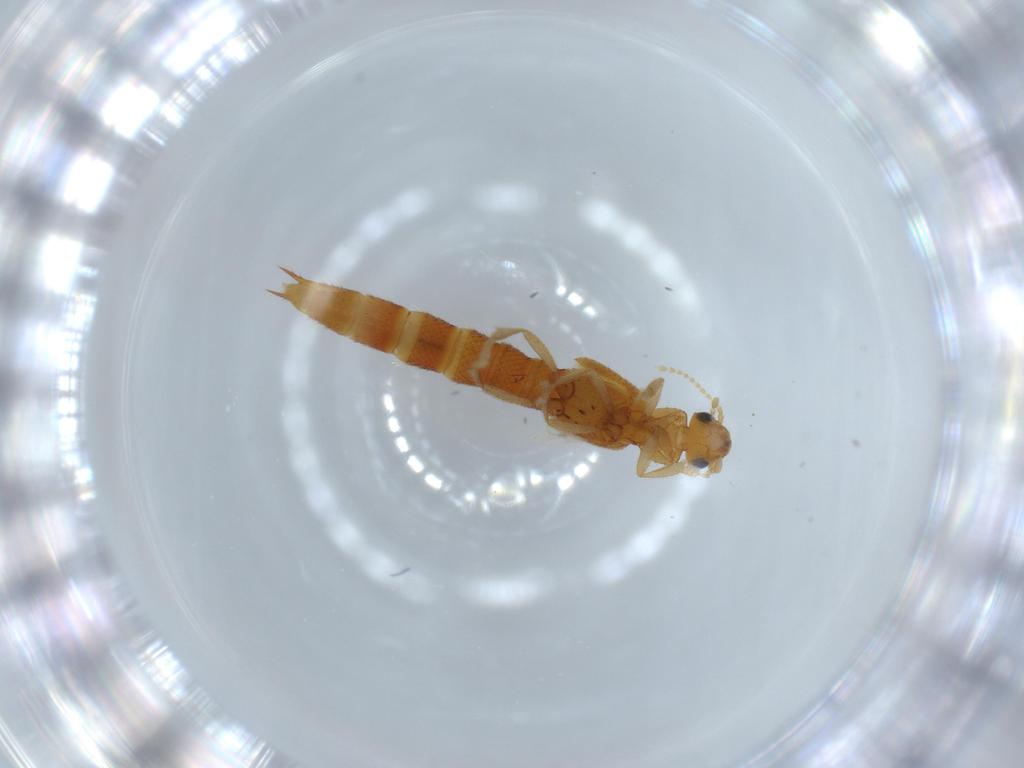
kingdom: Animalia
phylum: Arthropoda
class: Insecta
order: Coleoptera
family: Staphylinidae
